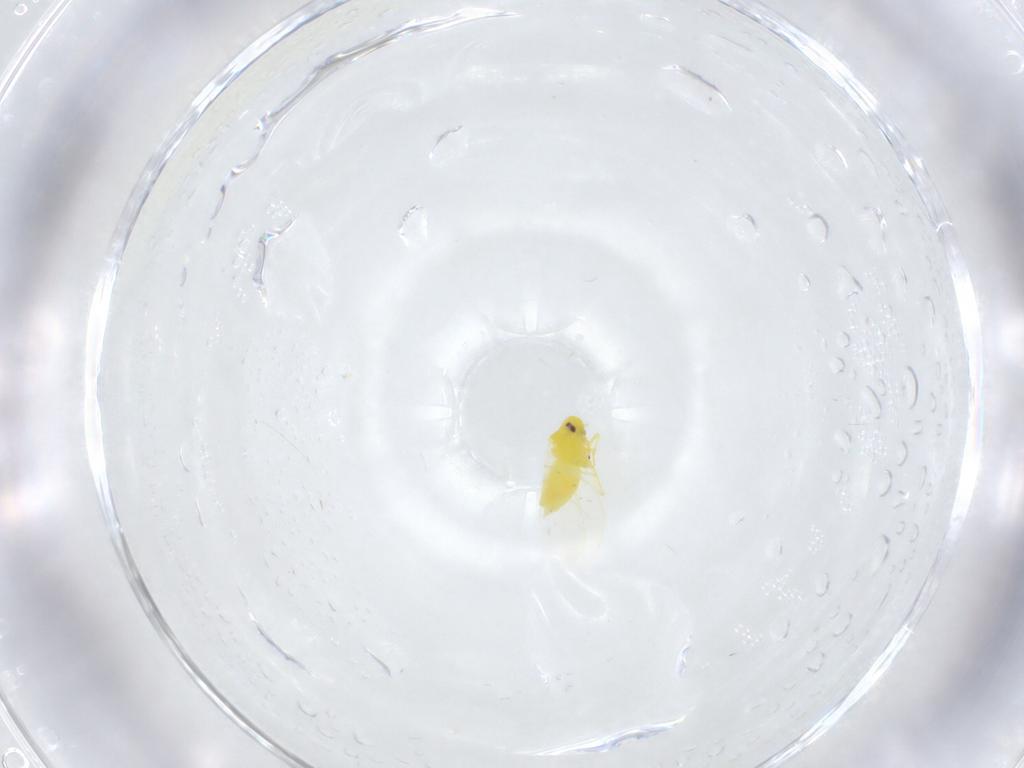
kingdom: Animalia
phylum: Arthropoda
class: Insecta
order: Hemiptera
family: Aleyrodidae
